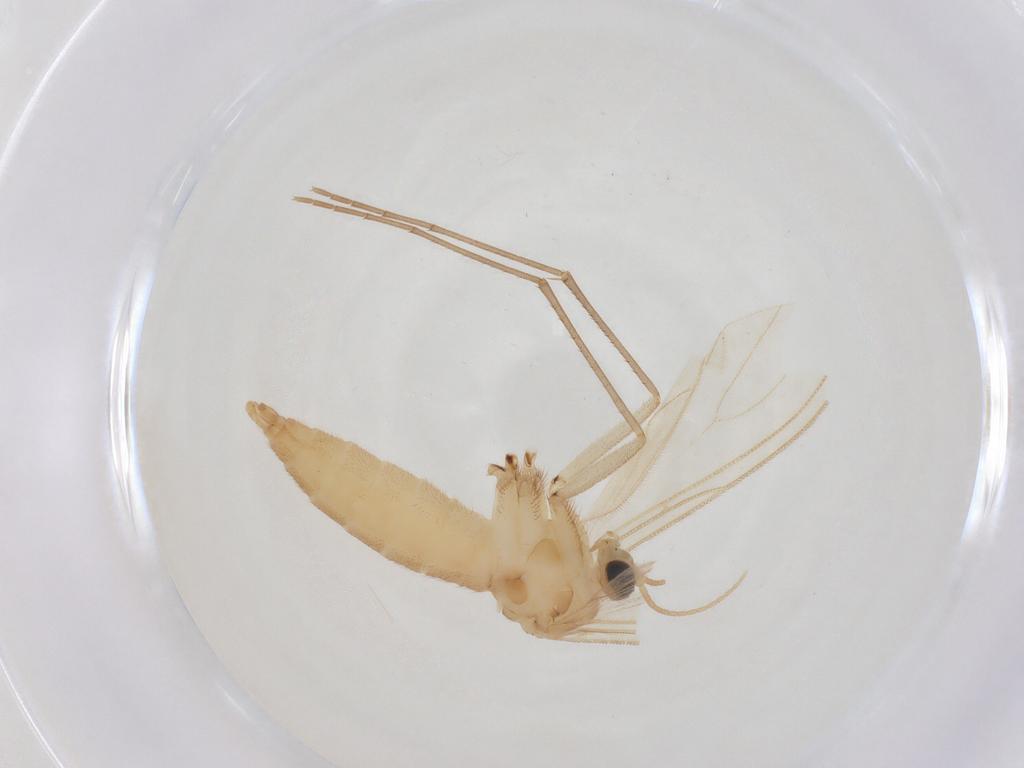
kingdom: Animalia
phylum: Arthropoda
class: Insecta
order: Diptera
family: Sciaridae
